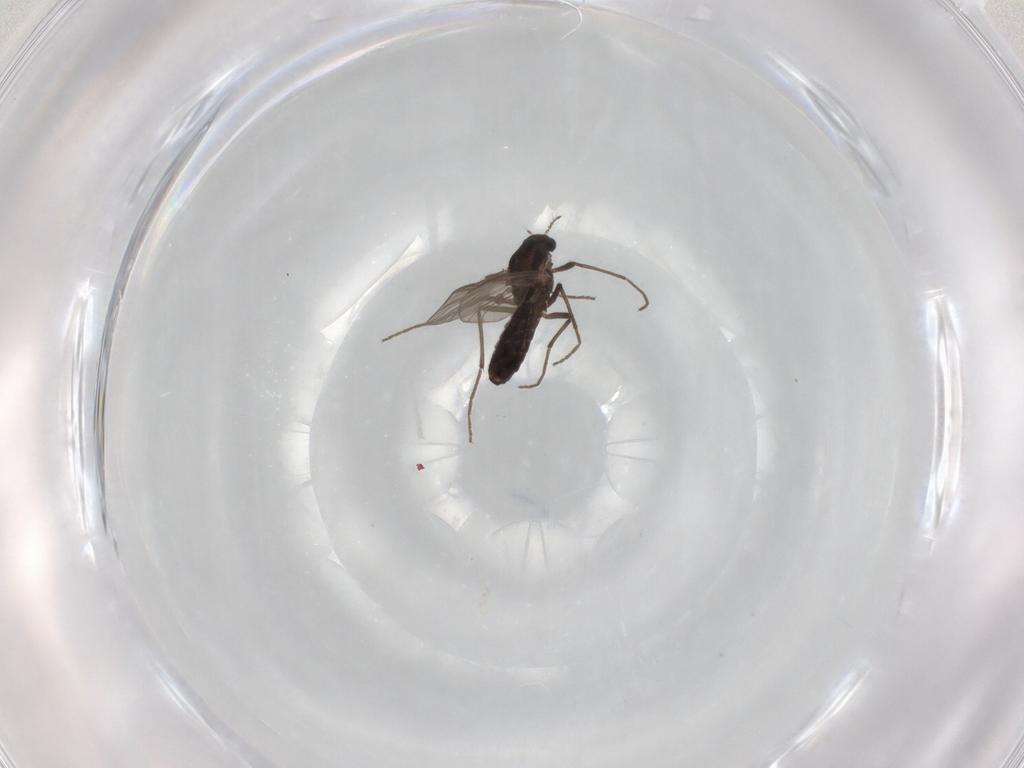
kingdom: Animalia
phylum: Arthropoda
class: Insecta
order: Diptera
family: Chironomidae
